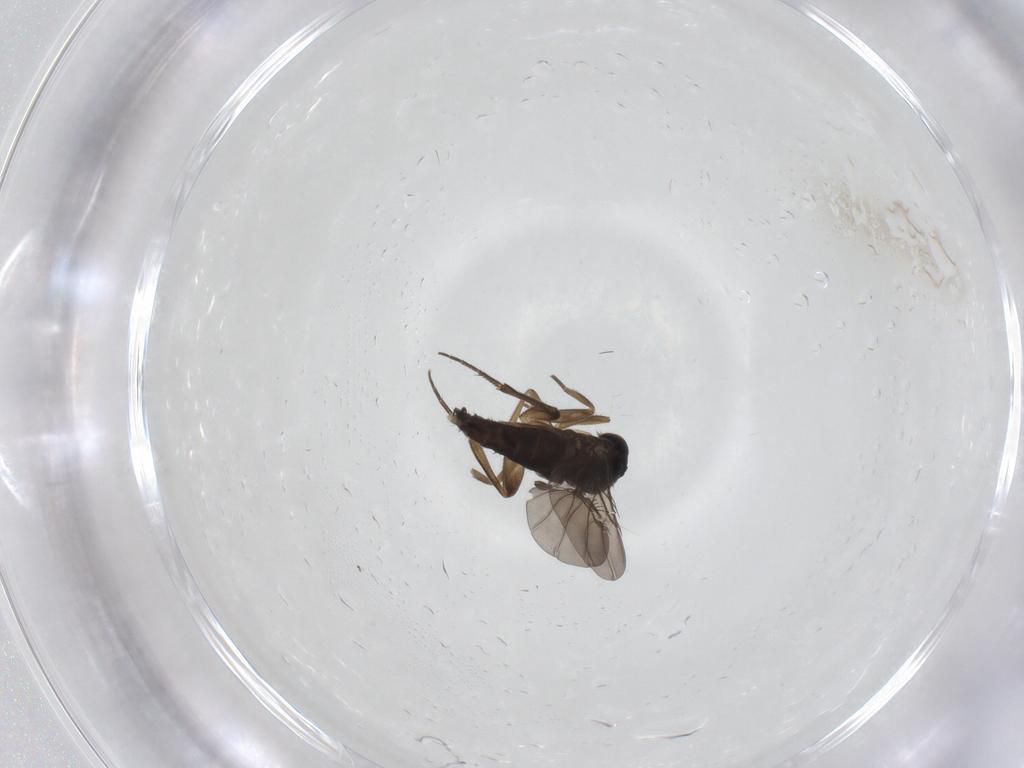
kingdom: Animalia
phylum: Arthropoda
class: Insecta
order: Diptera
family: Phoridae
